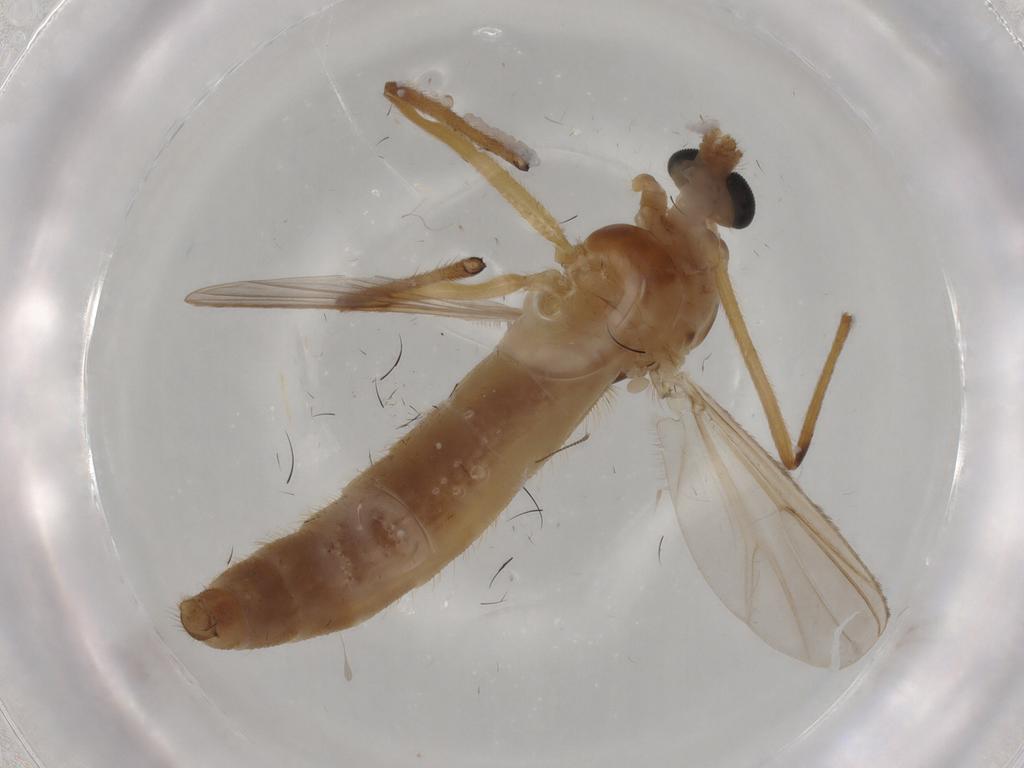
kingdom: Animalia
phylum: Arthropoda
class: Insecta
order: Diptera
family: Chironomidae
